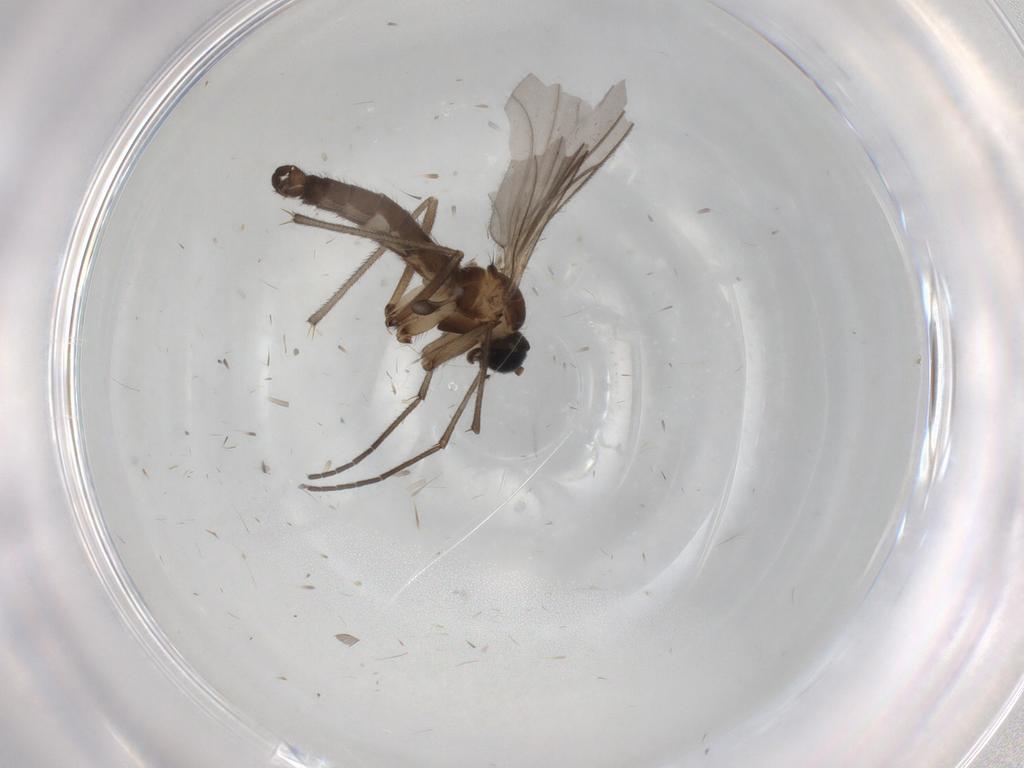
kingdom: Animalia
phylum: Arthropoda
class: Insecta
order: Diptera
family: Sciaridae
